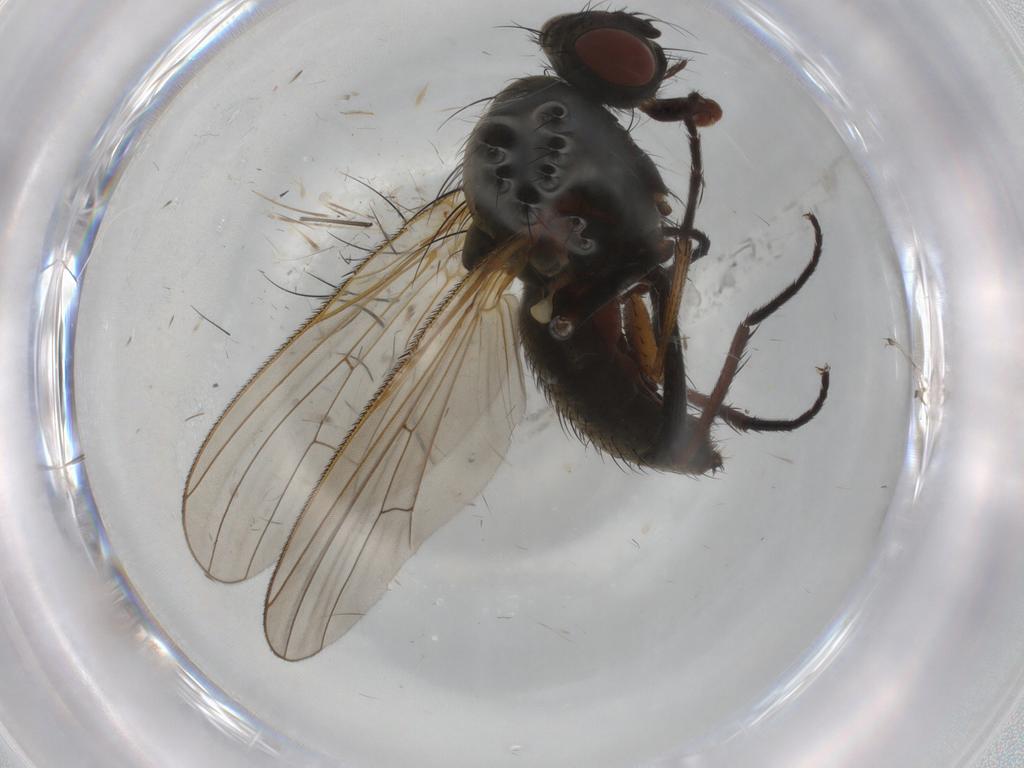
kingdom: Animalia
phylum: Arthropoda
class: Insecta
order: Diptera
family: Anthomyiidae
